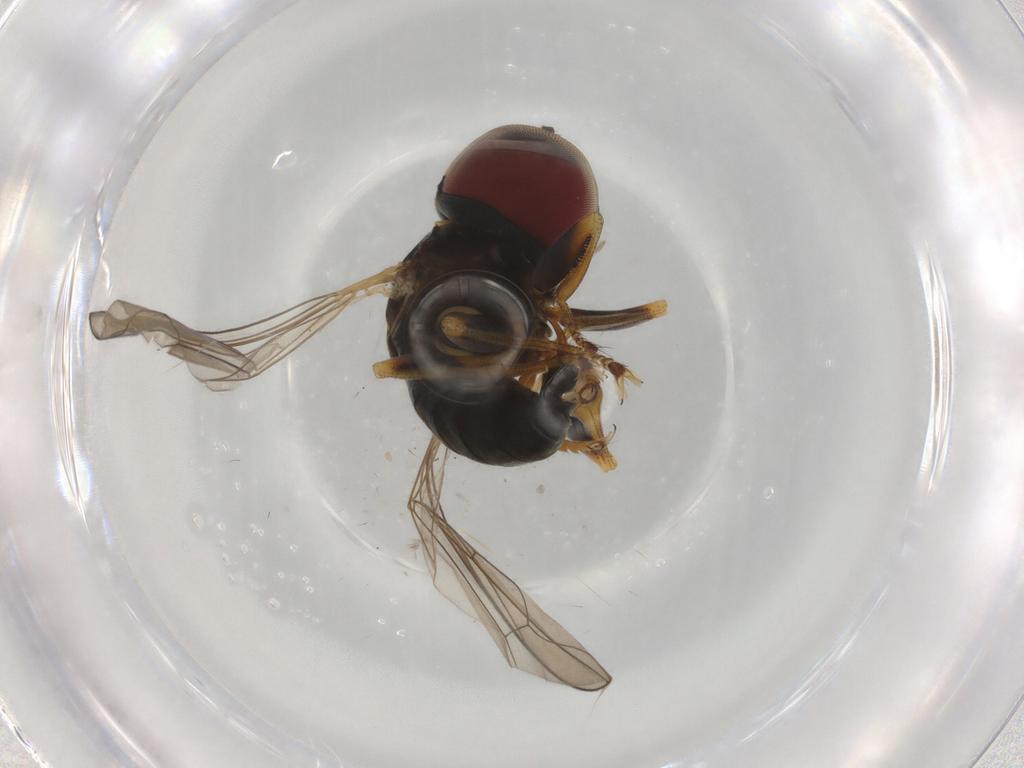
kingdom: Animalia
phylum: Arthropoda
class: Insecta
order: Diptera
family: Pipunculidae
